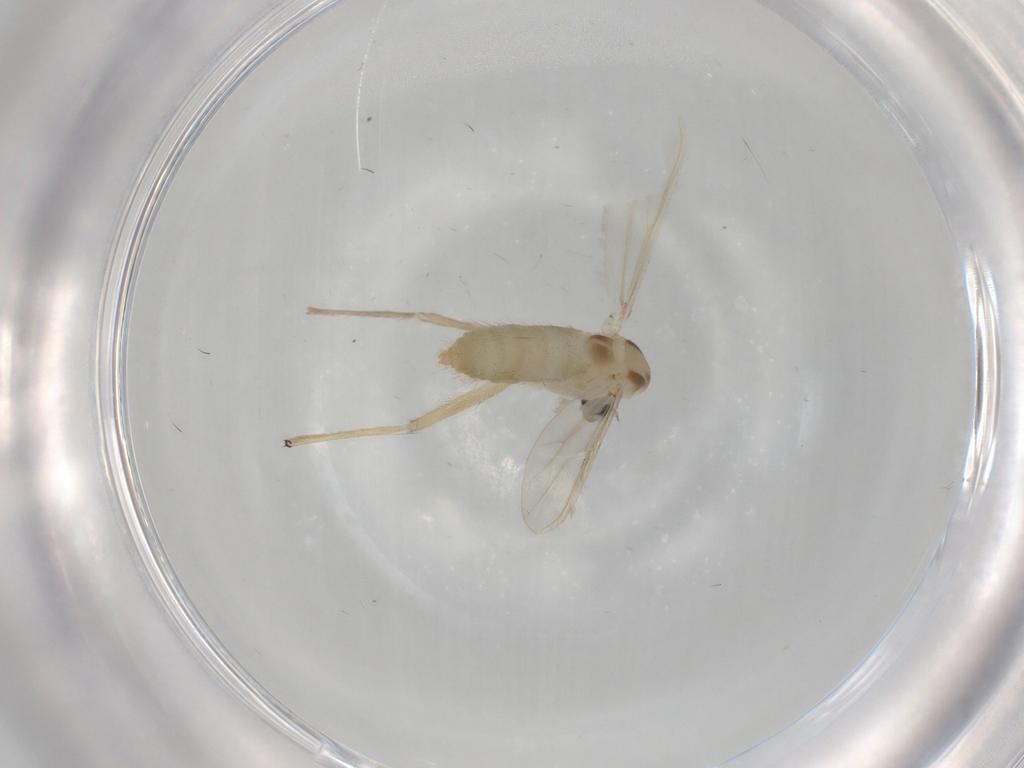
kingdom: Animalia
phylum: Arthropoda
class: Insecta
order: Diptera
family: Chironomidae
